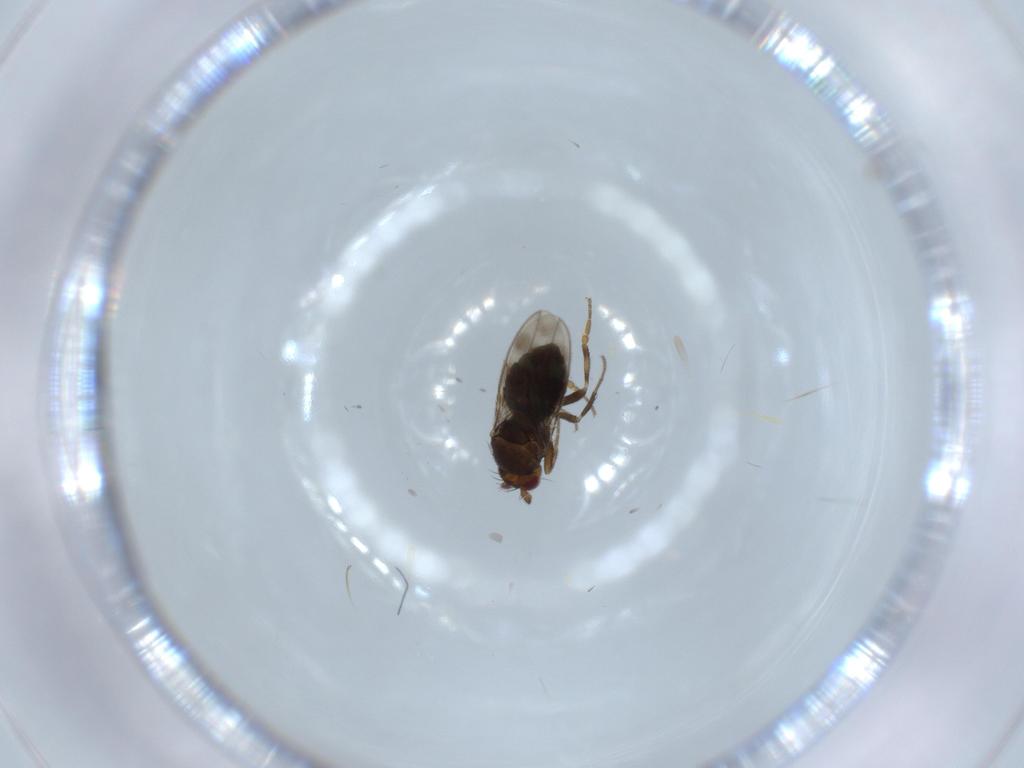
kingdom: Animalia
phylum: Arthropoda
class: Insecta
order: Diptera
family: Sphaeroceridae
